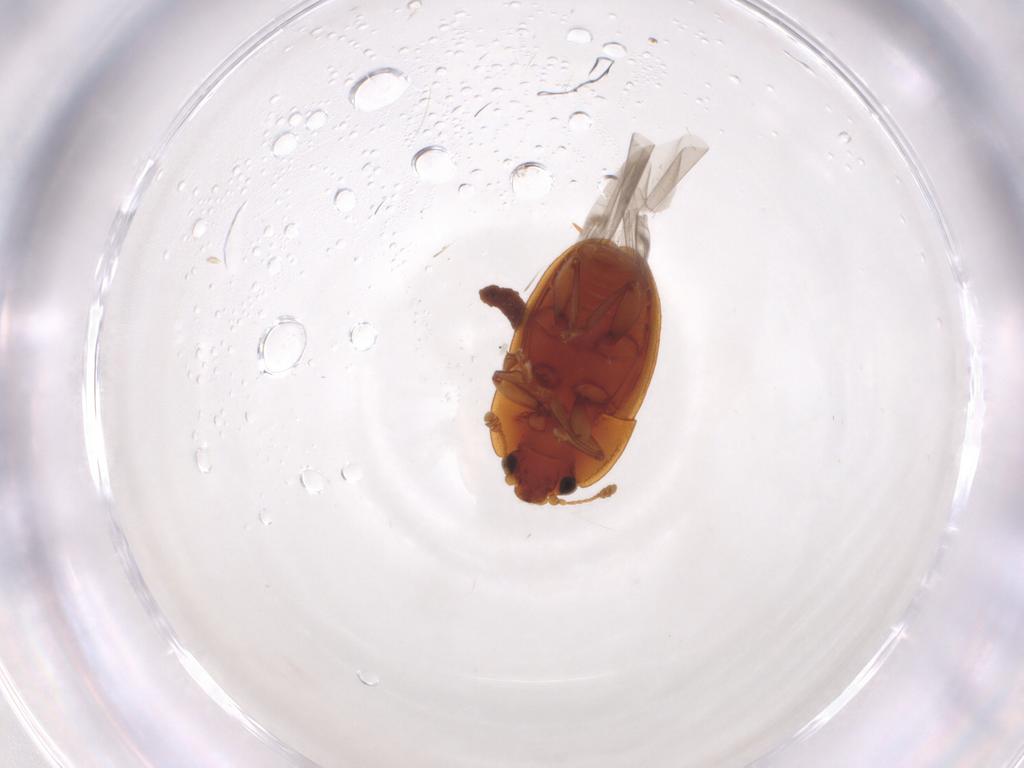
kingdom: Animalia
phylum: Arthropoda
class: Insecta
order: Coleoptera
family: Nitidulidae
